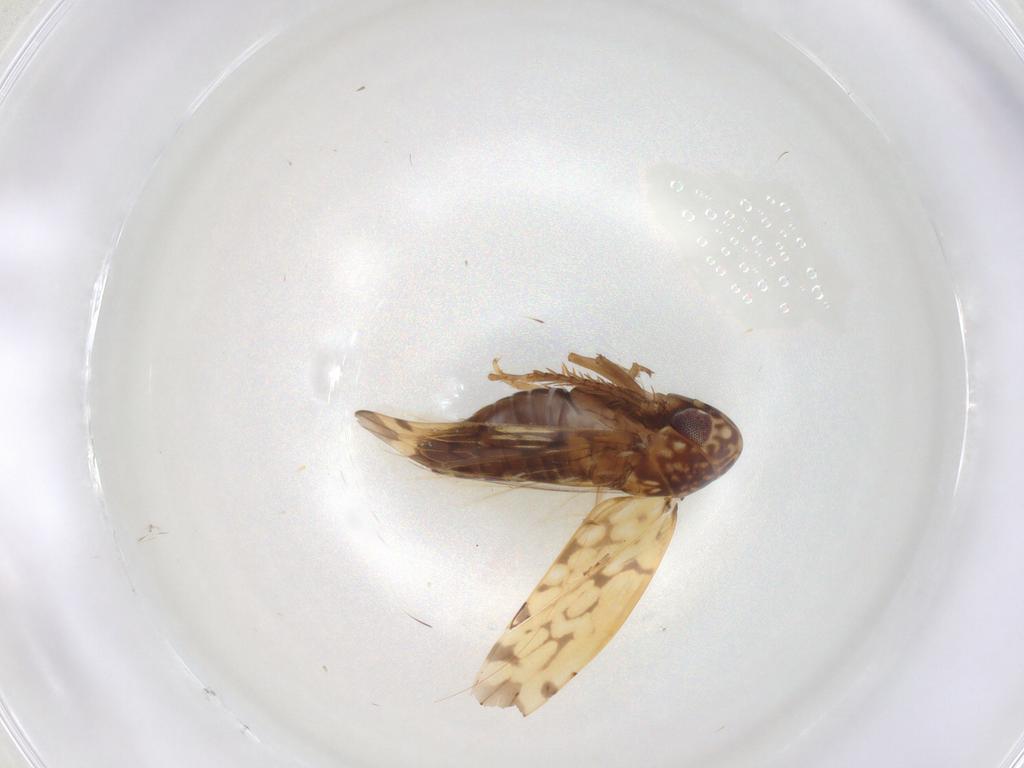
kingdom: Animalia
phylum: Arthropoda
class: Insecta
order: Hemiptera
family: Cicadellidae
